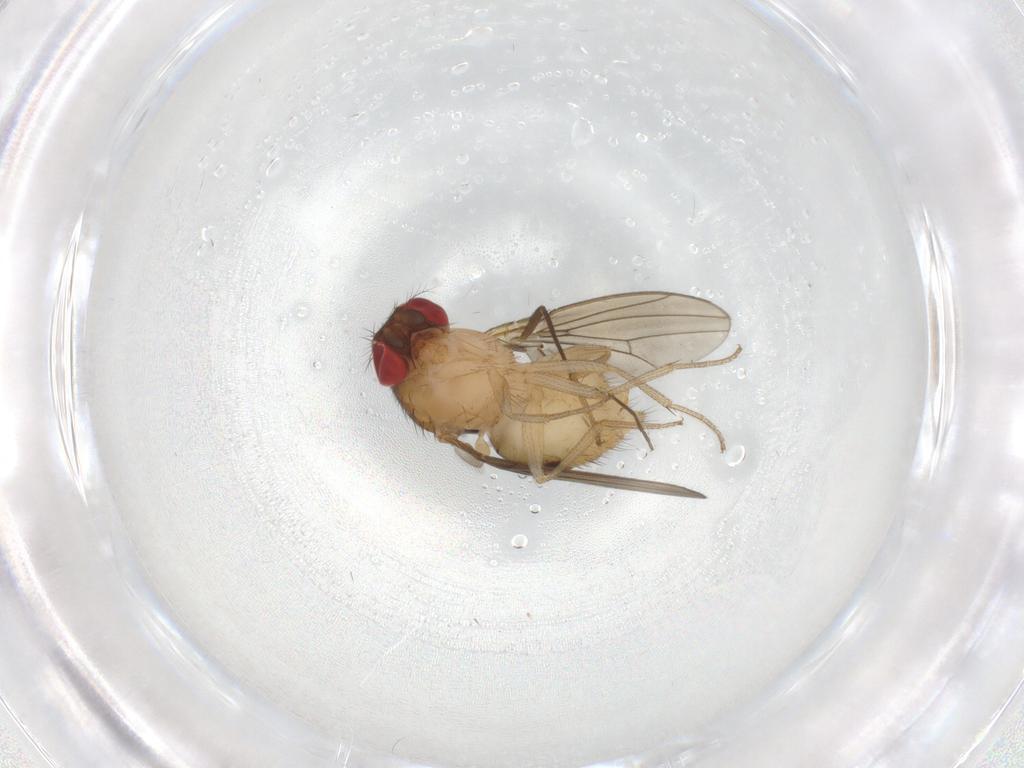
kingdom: Animalia
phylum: Arthropoda
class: Insecta
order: Diptera
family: Drosophilidae
